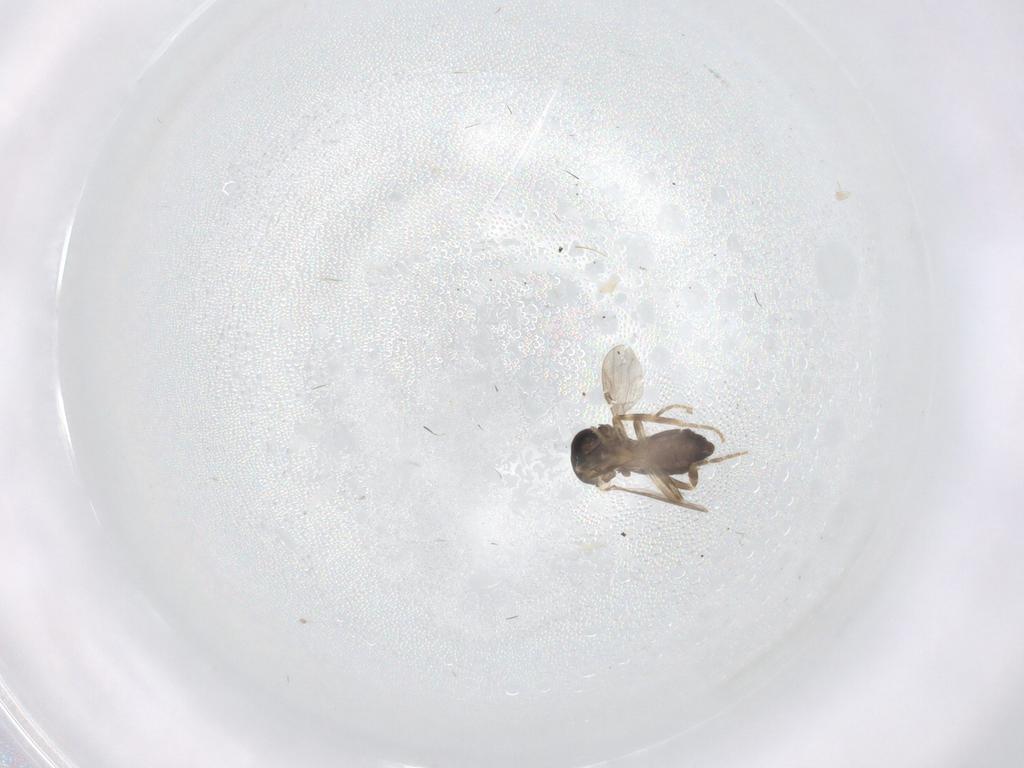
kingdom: Animalia
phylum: Arthropoda
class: Insecta
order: Diptera
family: Ceratopogonidae
